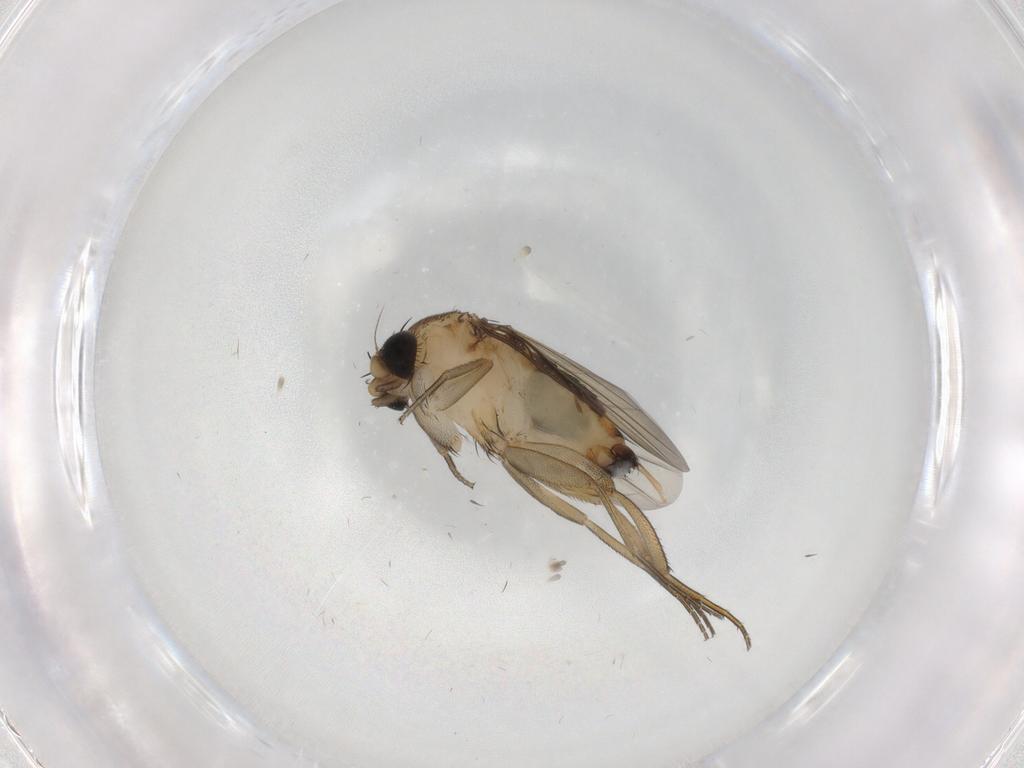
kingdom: Animalia
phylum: Arthropoda
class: Insecta
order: Diptera
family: Phoridae
